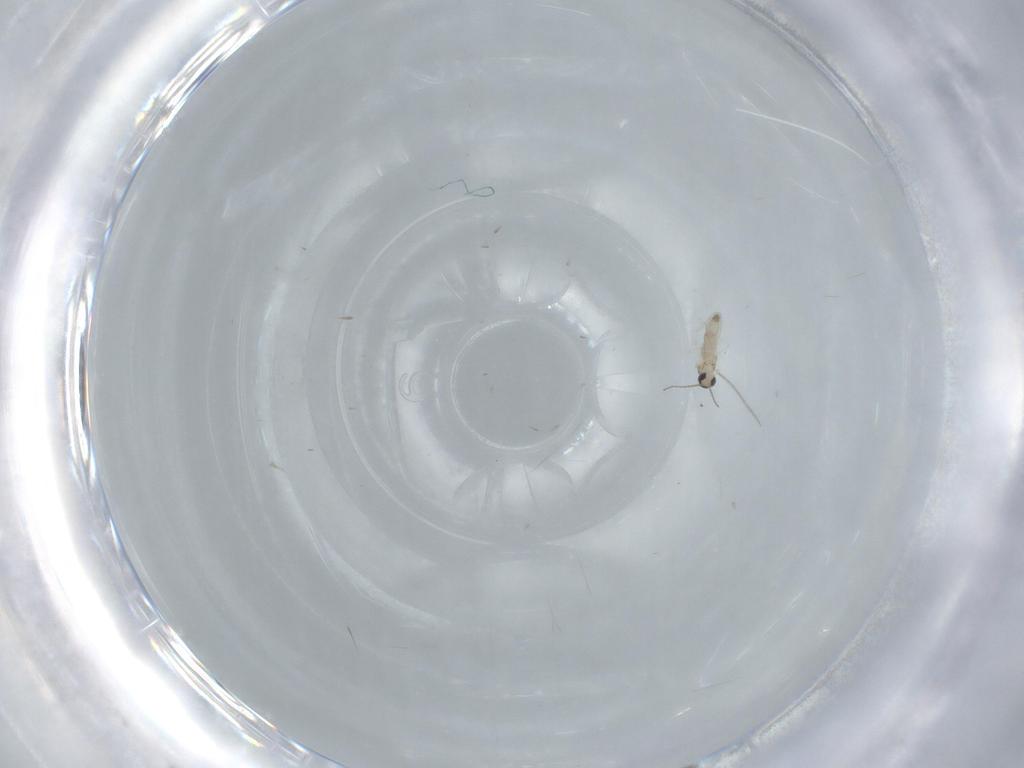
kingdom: Animalia
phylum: Arthropoda
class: Insecta
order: Diptera
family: Cecidomyiidae
